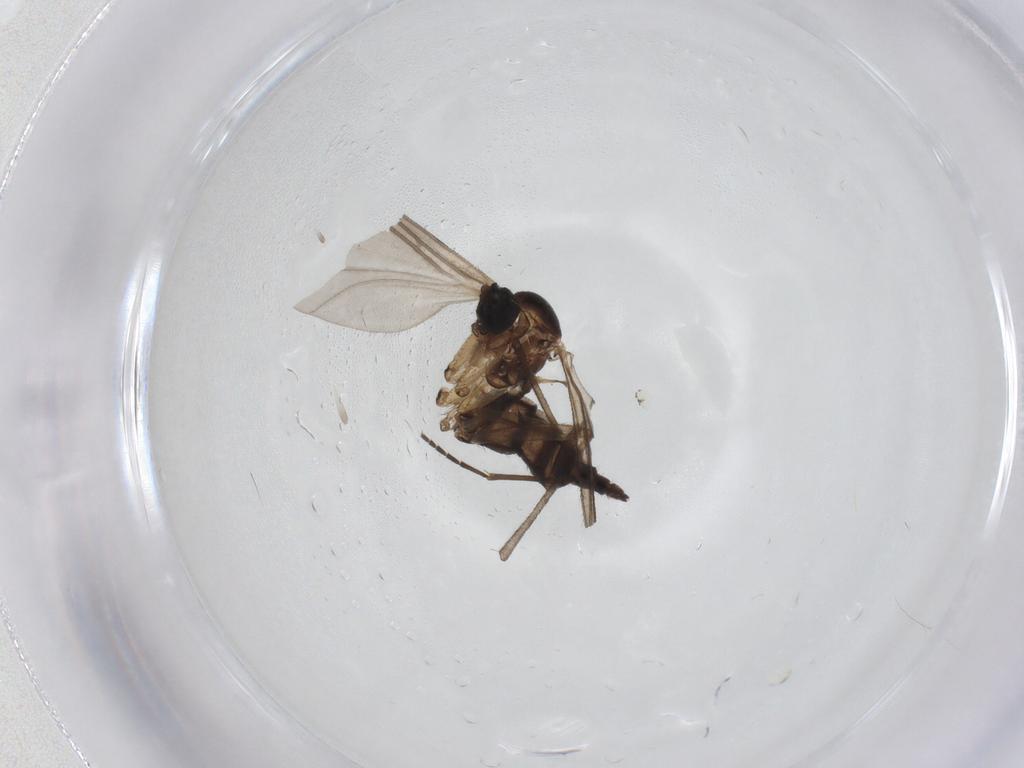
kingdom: Animalia
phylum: Arthropoda
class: Insecta
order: Diptera
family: Sciaridae
